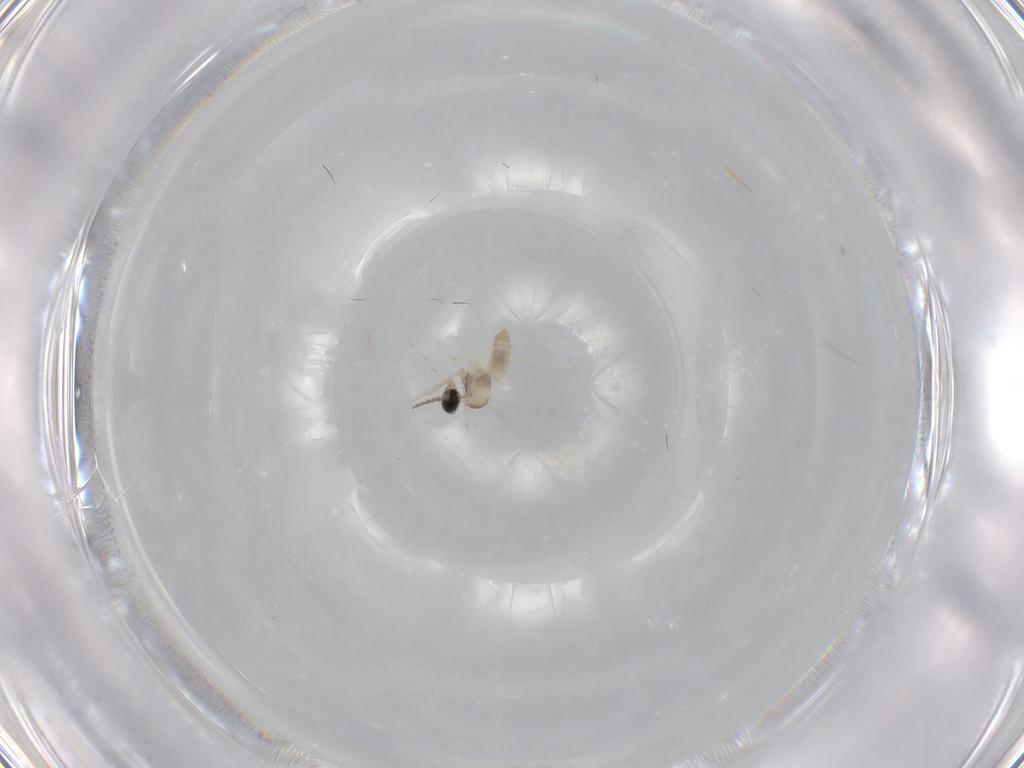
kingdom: Animalia
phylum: Arthropoda
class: Insecta
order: Diptera
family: Cecidomyiidae
